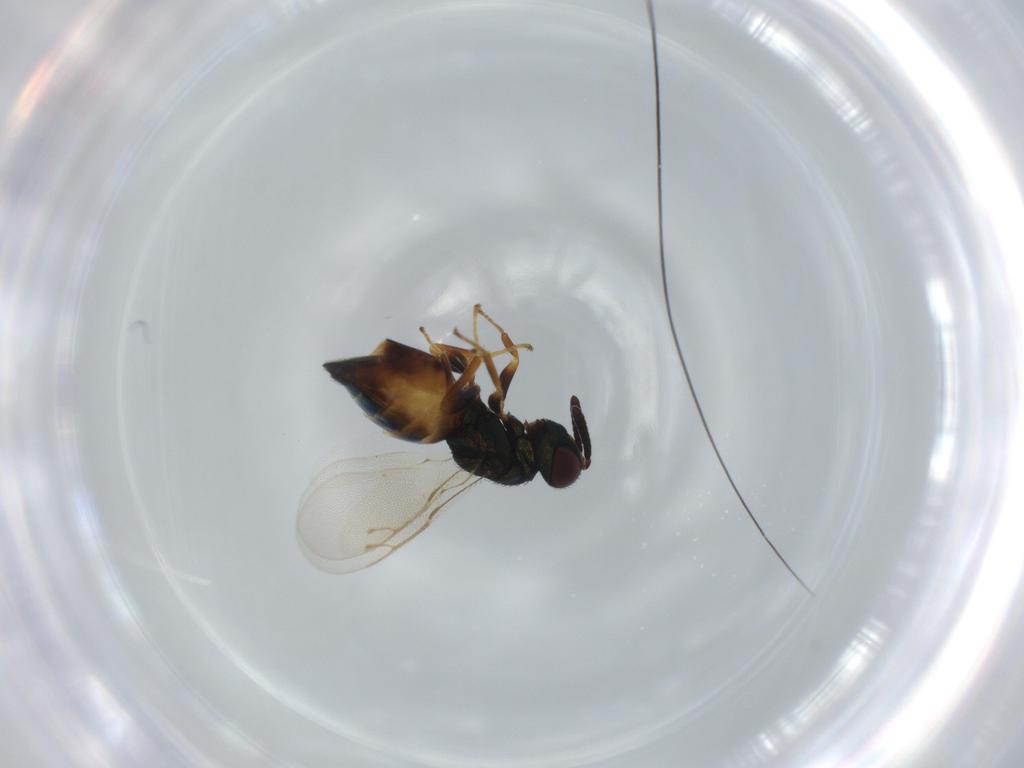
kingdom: Animalia
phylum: Arthropoda
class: Insecta
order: Hymenoptera
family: Pteromalidae
